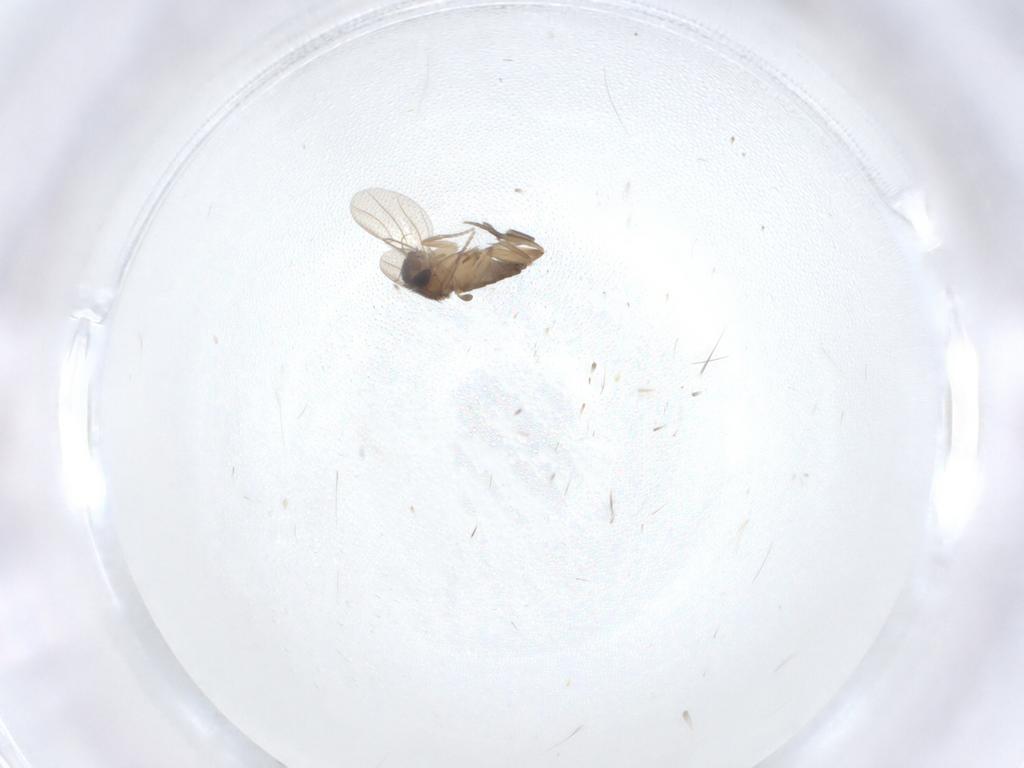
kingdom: Animalia
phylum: Arthropoda
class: Insecta
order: Diptera
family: Phoridae
